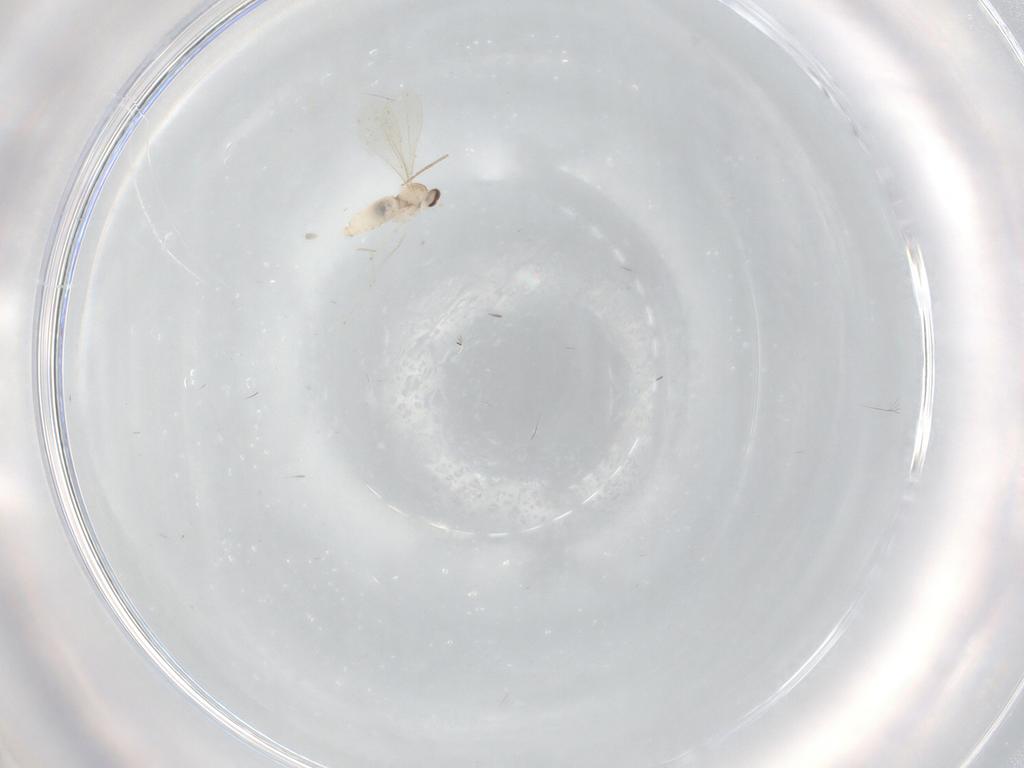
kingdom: Animalia
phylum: Arthropoda
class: Insecta
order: Diptera
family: Chironomidae
